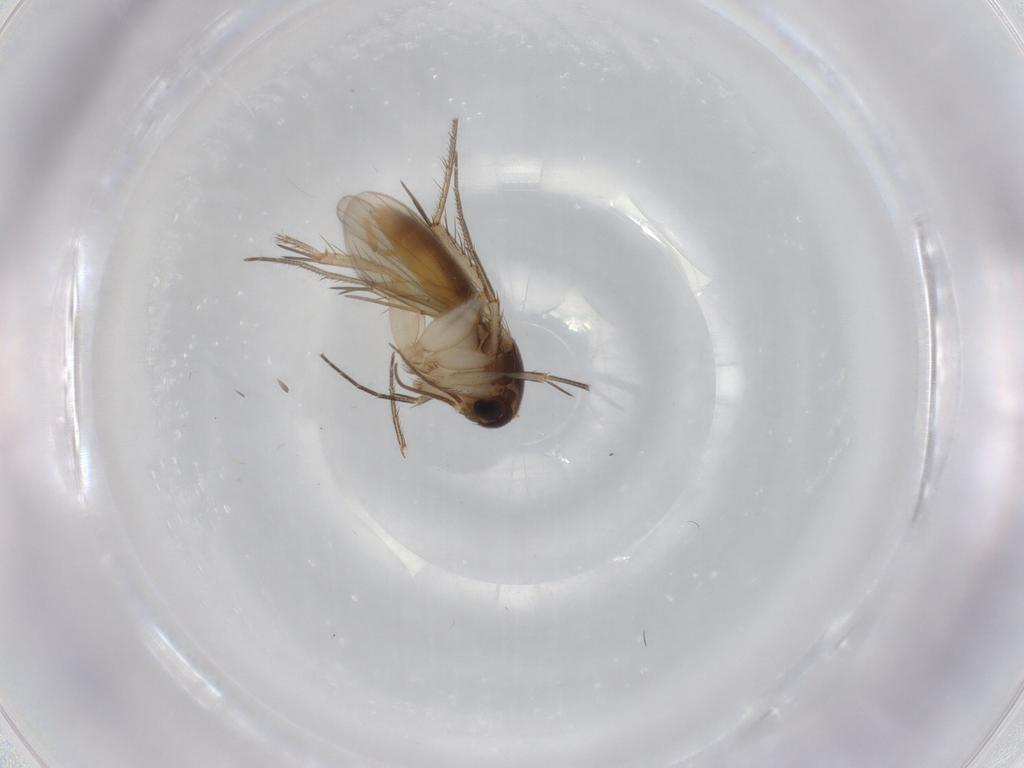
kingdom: Animalia
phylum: Arthropoda
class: Insecta
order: Diptera
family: Mycetophilidae
